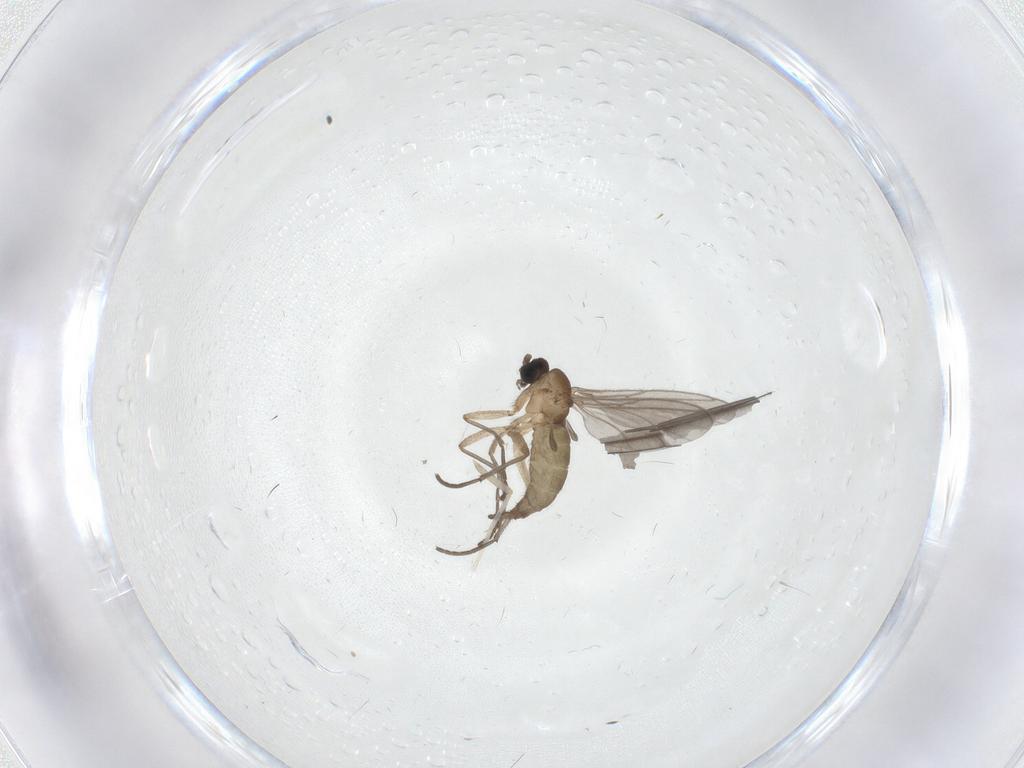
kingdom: Animalia
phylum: Arthropoda
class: Insecta
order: Diptera
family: Sciaridae
